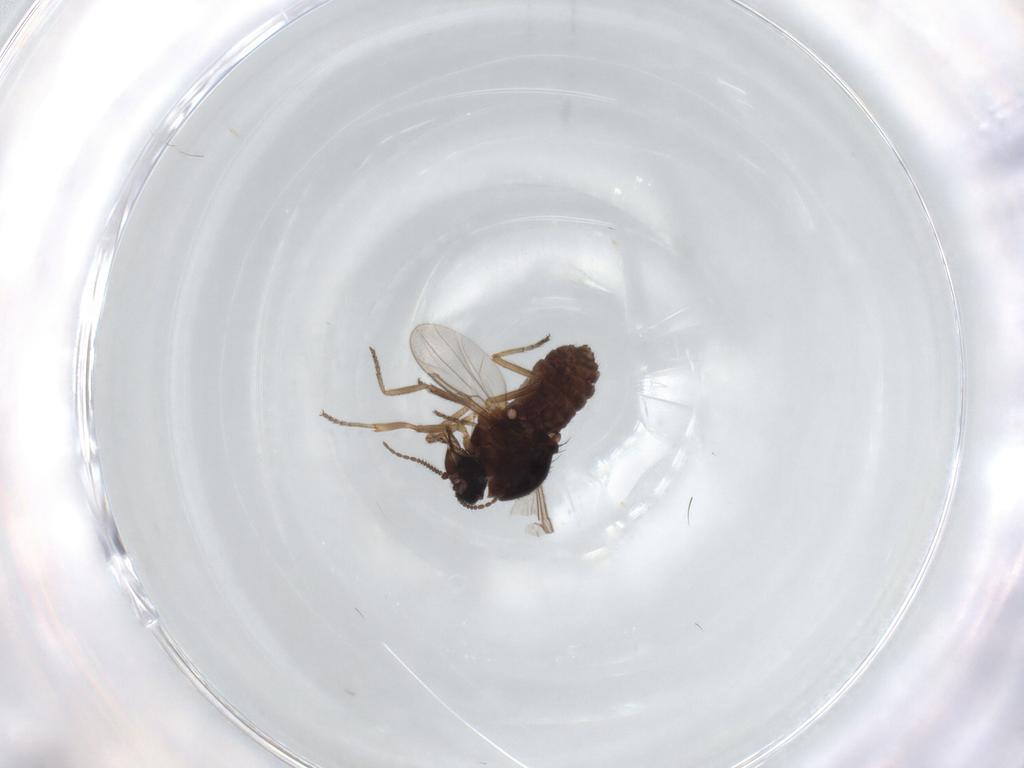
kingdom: Animalia
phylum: Arthropoda
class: Insecta
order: Diptera
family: Ceratopogonidae
